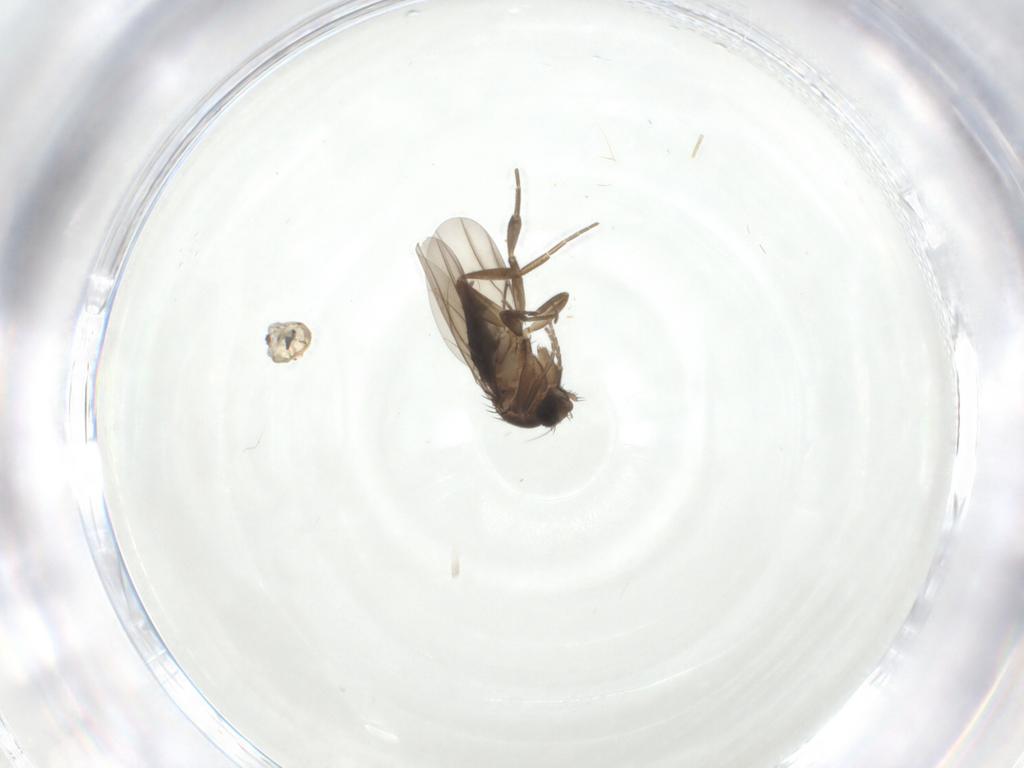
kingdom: Animalia
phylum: Arthropoda
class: Insecta
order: Diptera
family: Phoridae
